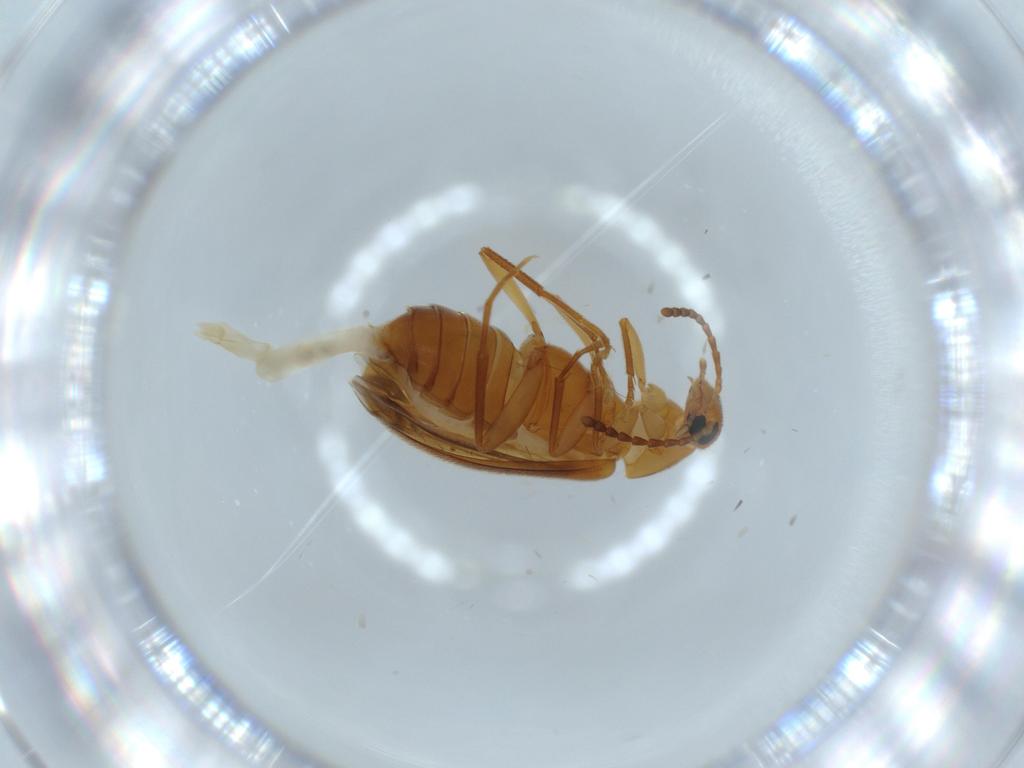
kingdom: Animalia
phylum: Arthropoda
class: Insecta
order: Coleoptera
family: Scraptiidae
